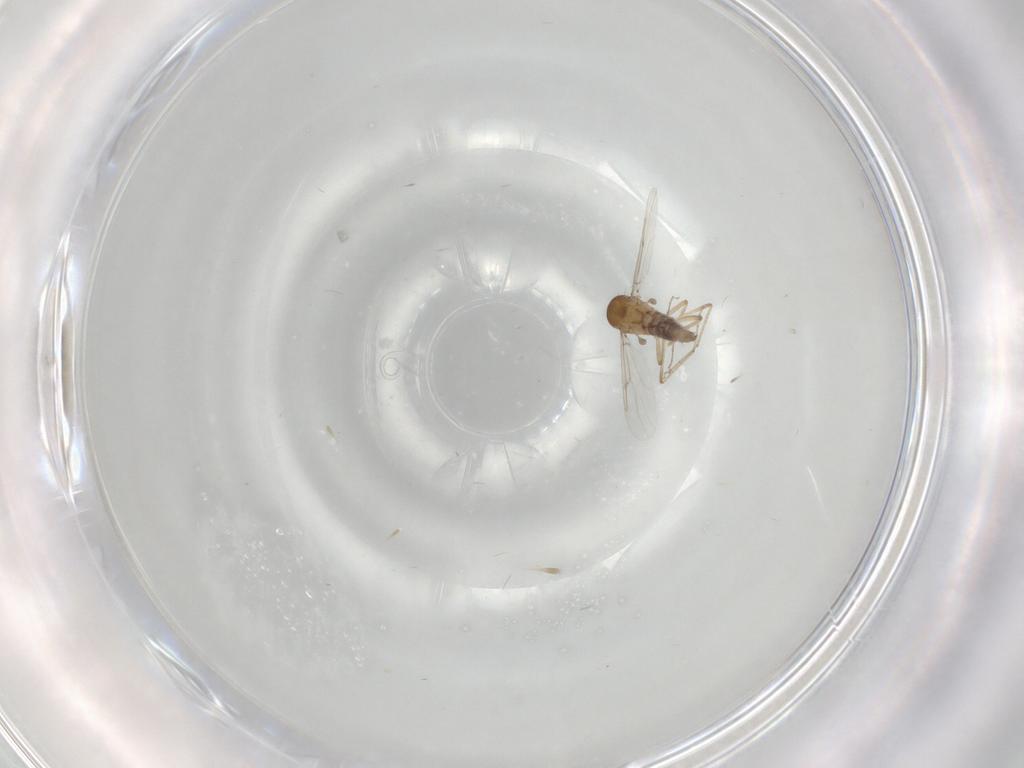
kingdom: Animalia
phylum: Arthropoda
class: Insecta
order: Diptera
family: Ceratopogonidae
